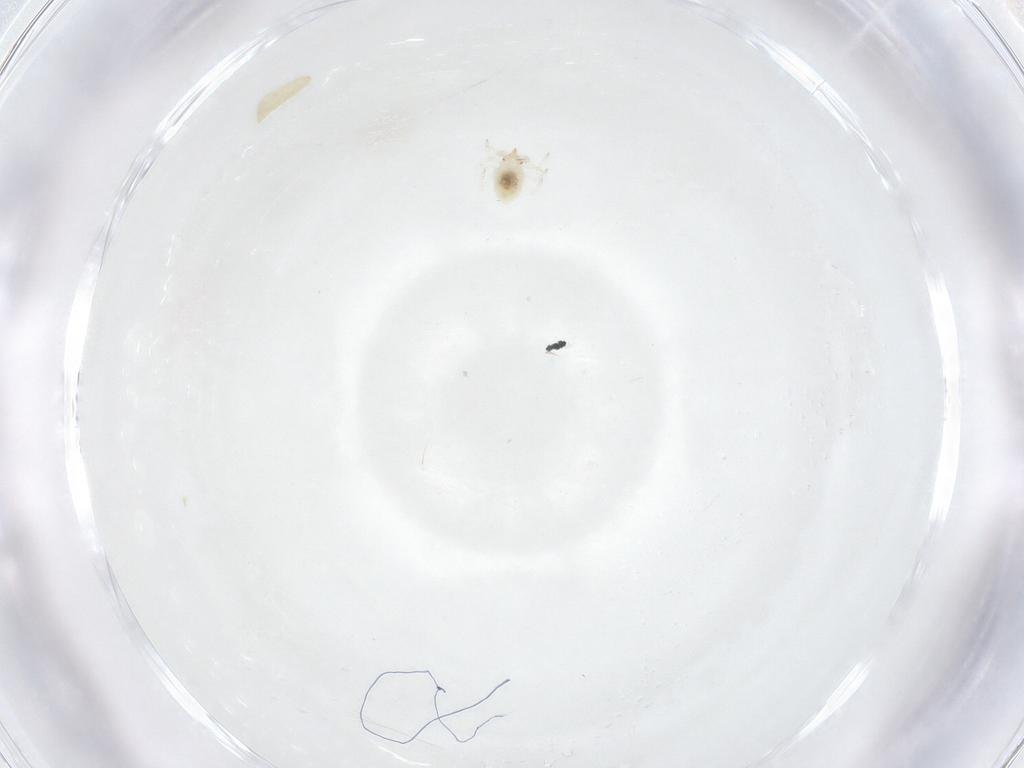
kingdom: Animalia
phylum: Arthropoda
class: Insecta
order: Neuroptera
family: Coniopterygidae
